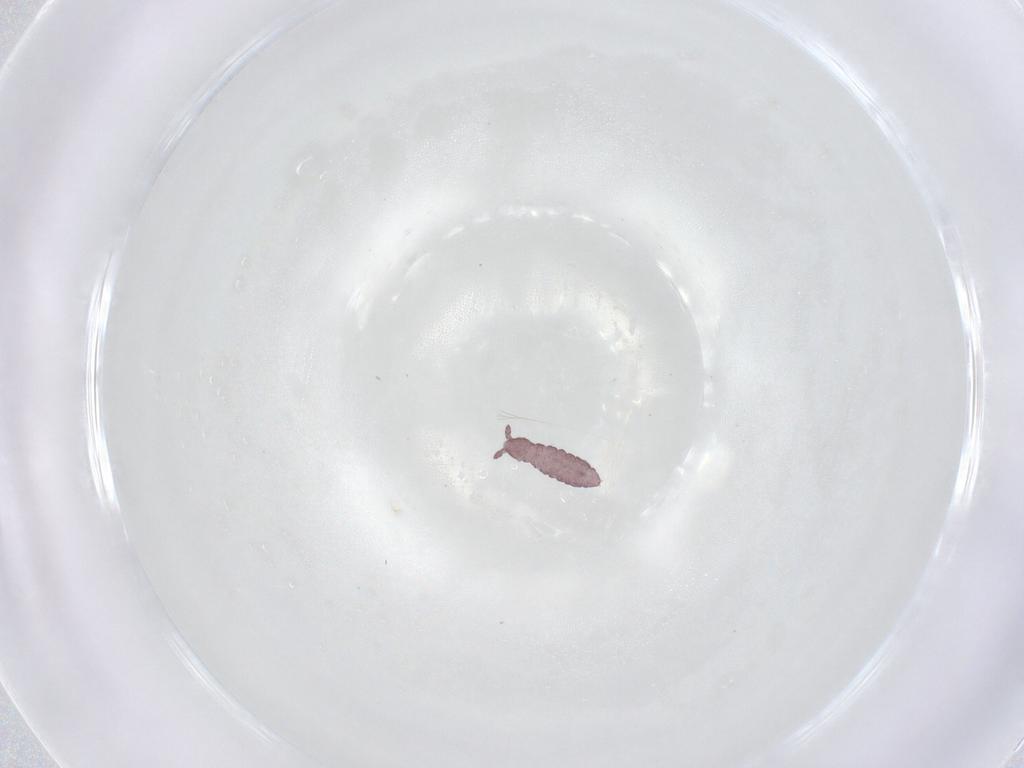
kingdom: Animalia
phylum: Arthropoda
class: Collembola
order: Poduromorpha
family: Hypogastruridae
